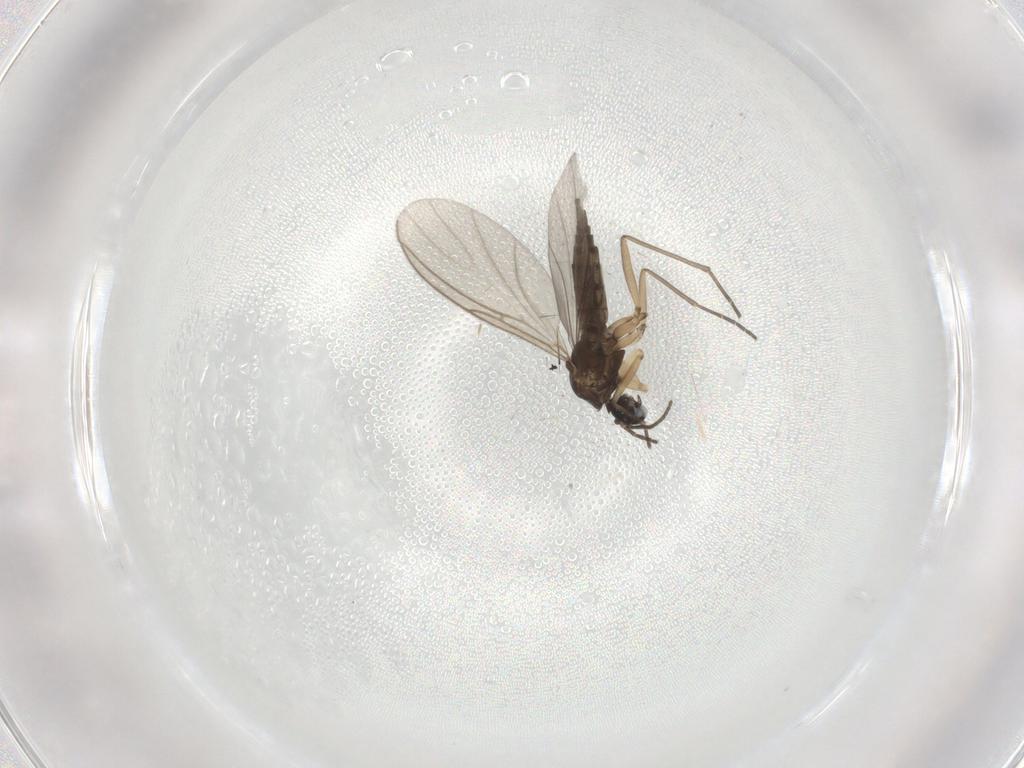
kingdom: Animalia
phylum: Arthropoda
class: Insecta
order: Diptera
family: Sciaridae
